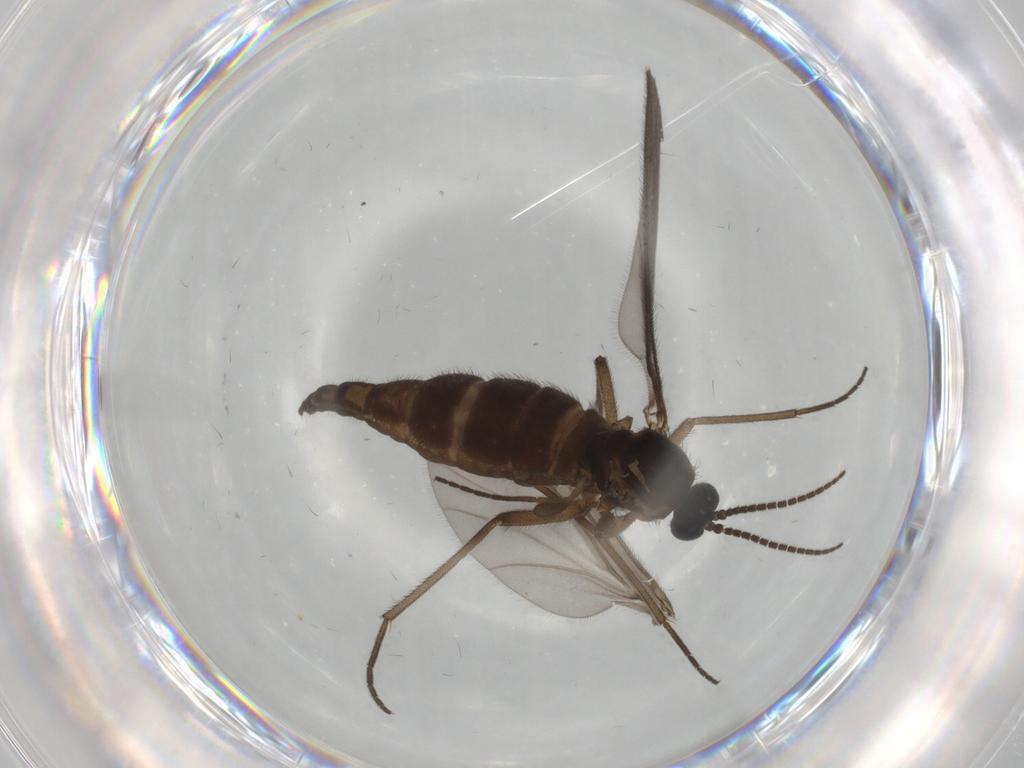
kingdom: Animalia
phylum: Arthropoda
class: Insecta
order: Diptera
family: Sciaridae
